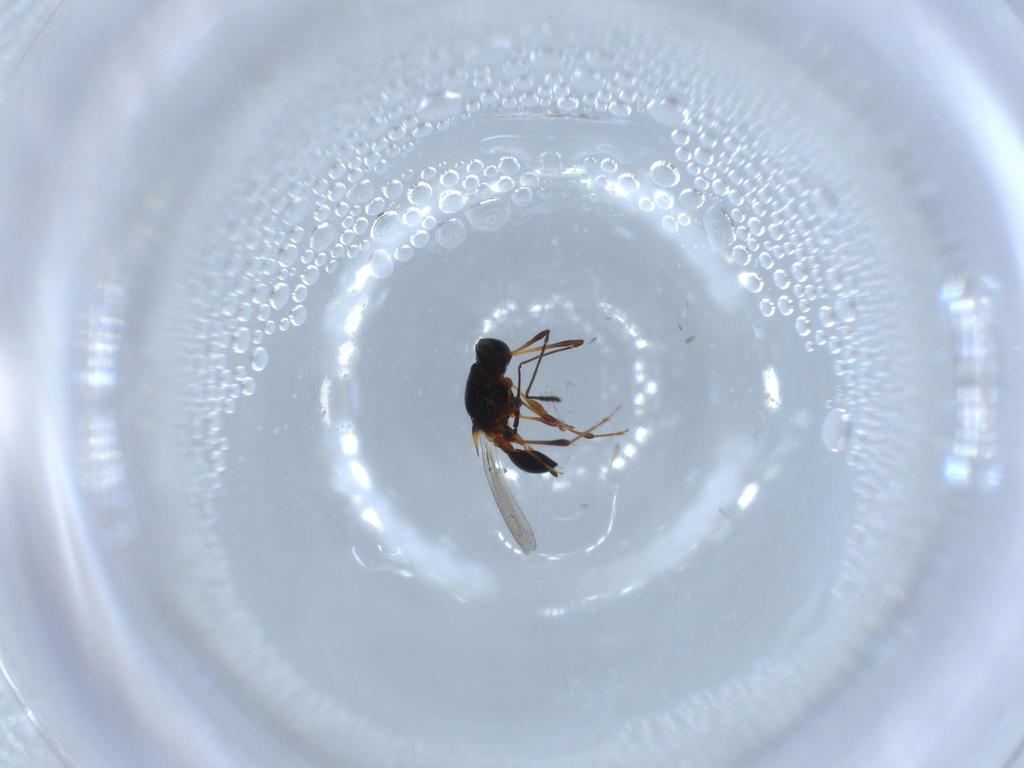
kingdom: Animalia
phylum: Arthropoda
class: Insecta
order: Hymenoptera
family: Platygastridae
